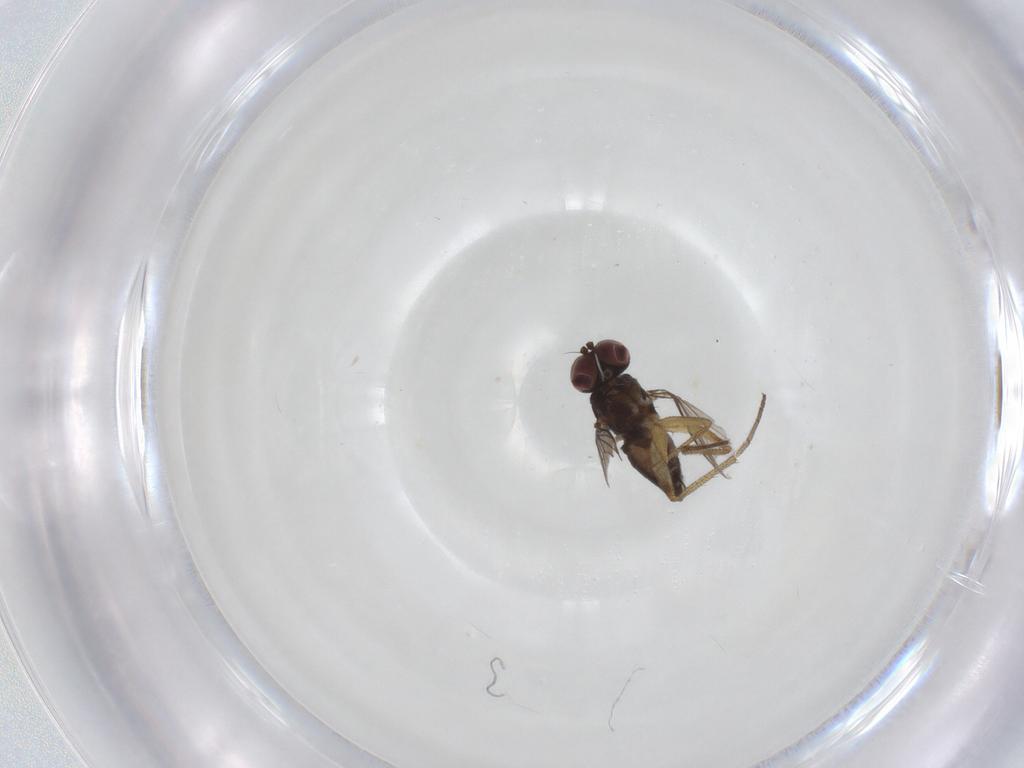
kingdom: Animalia
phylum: Arthropoda
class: Insecta
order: Diptera
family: Dolichopodidae
